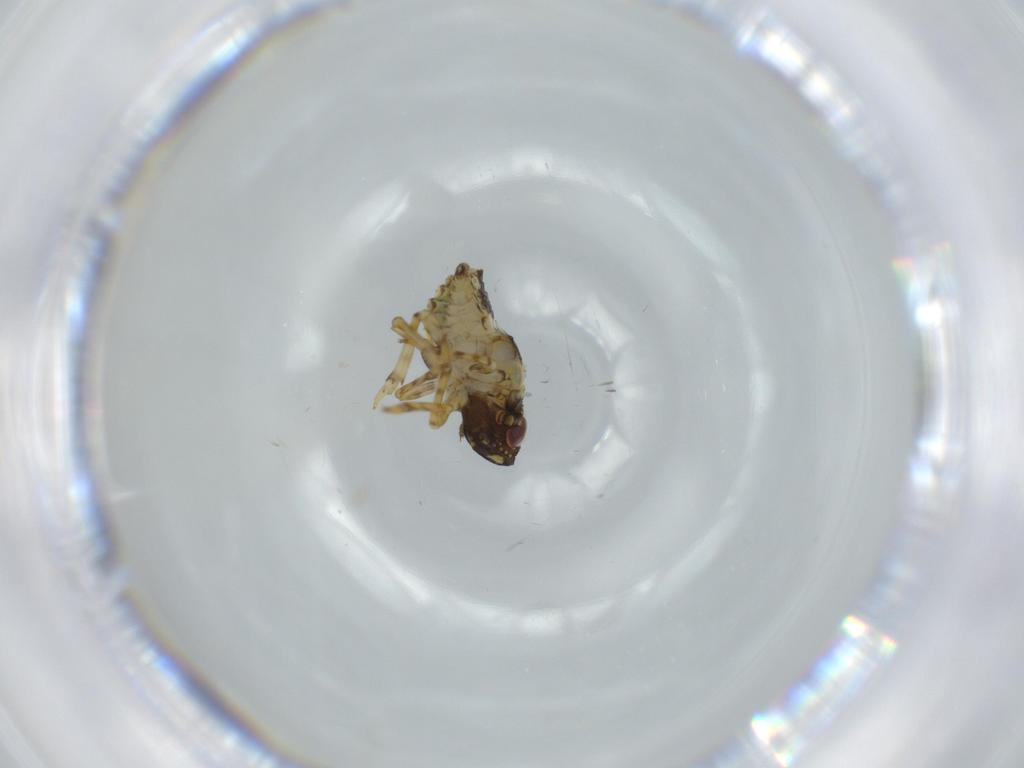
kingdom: Animalia
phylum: Arthropoda
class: Insecta
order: Hemiptera
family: Issidae
